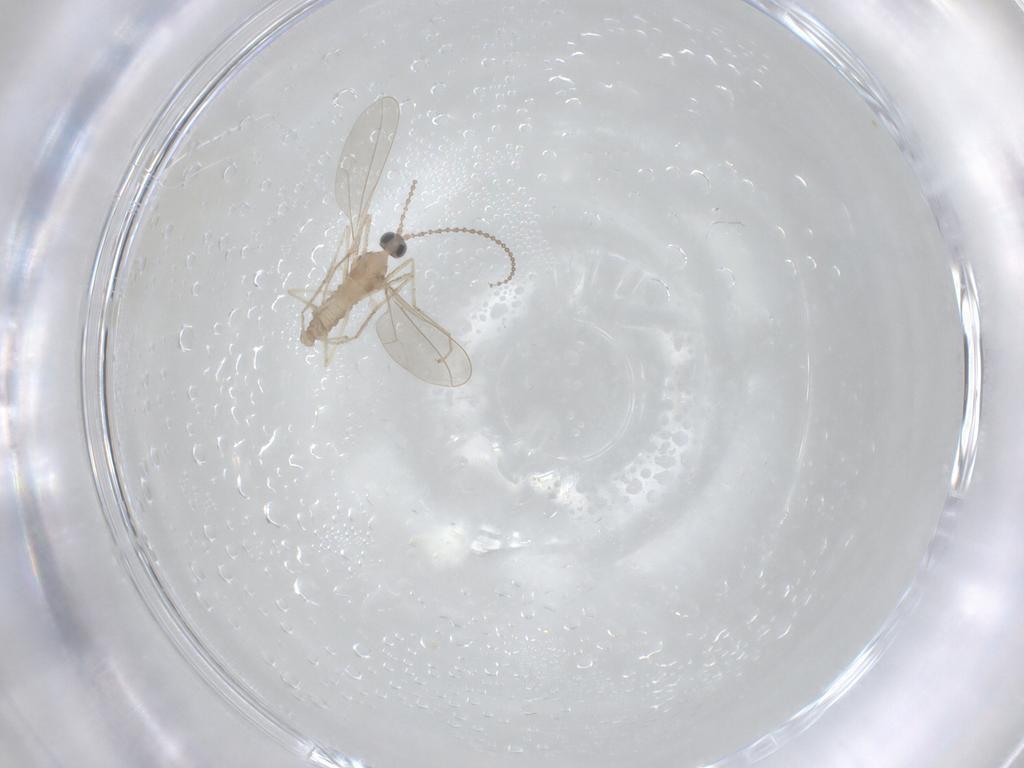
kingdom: Animalia
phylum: Arthropoda
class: Insecta
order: Diptera
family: Cecidomyiidae
